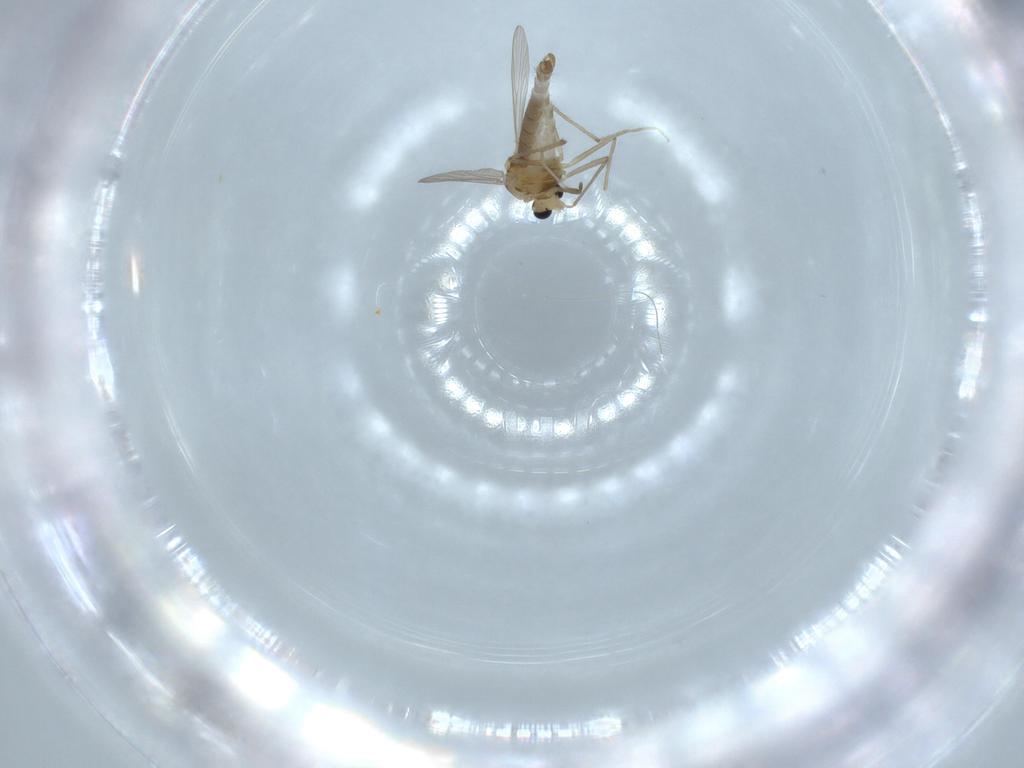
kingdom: Animalia
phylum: Arthropoda
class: Insecta
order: Diptera
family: Chironomidae
